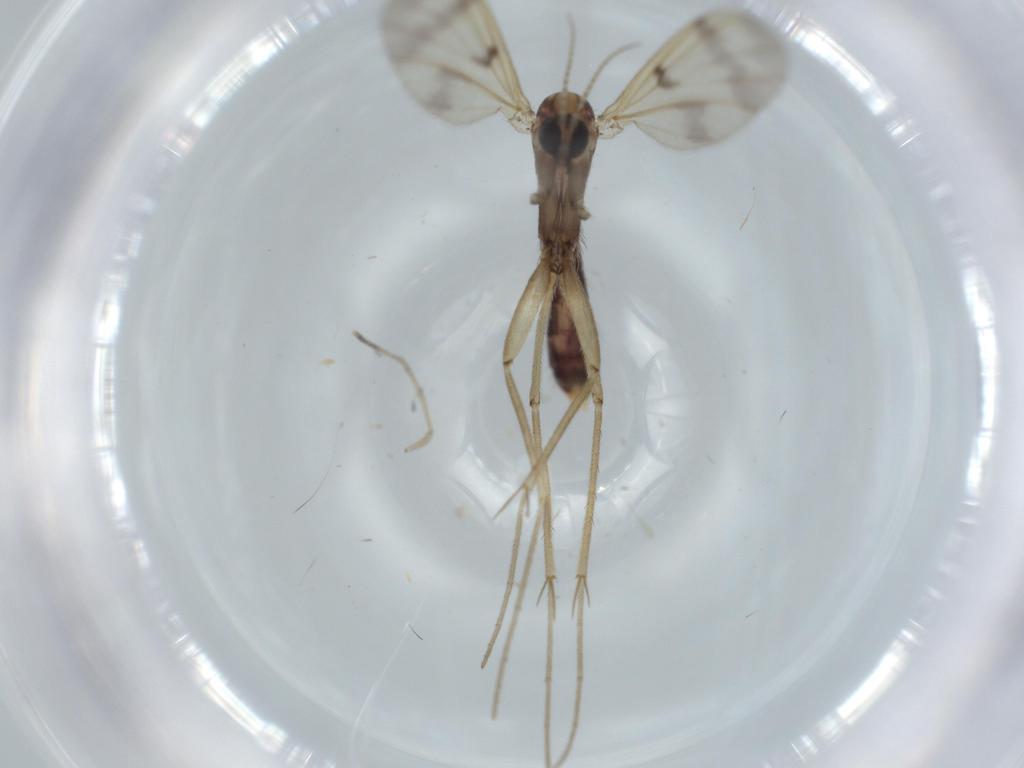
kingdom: Animalia
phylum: Arthropoda
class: Insecta
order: Diptera
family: Mycetophilidae
